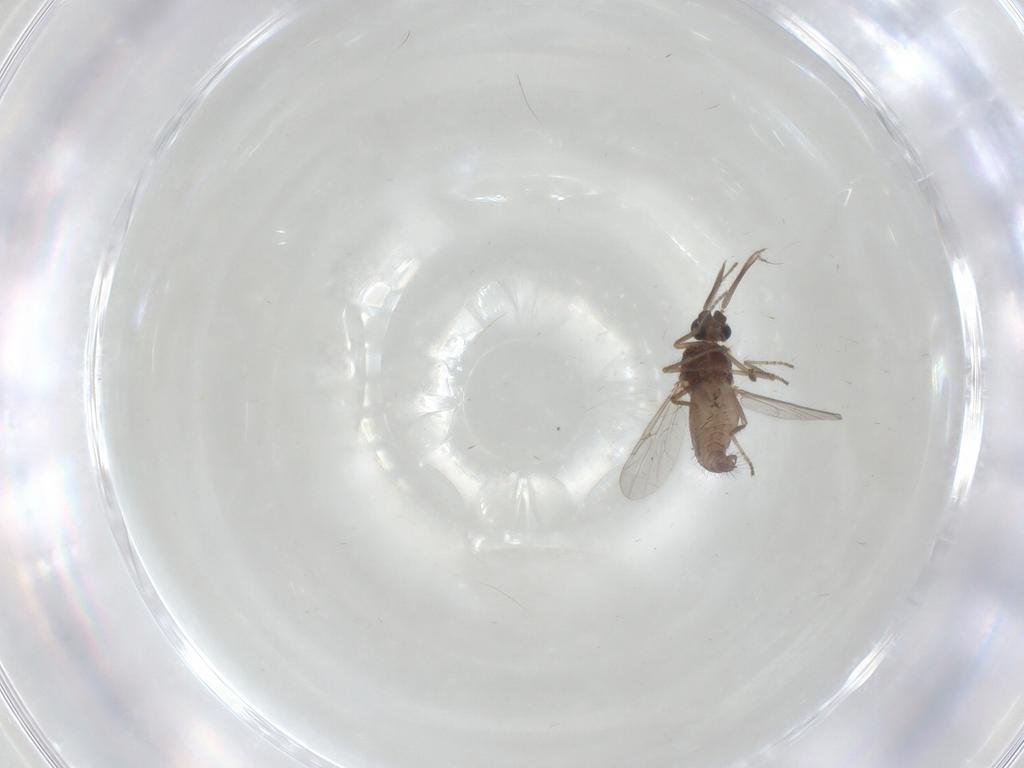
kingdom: Animalia
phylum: Arthropoda
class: Insecta
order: Diptera
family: Ceratopogonidae
